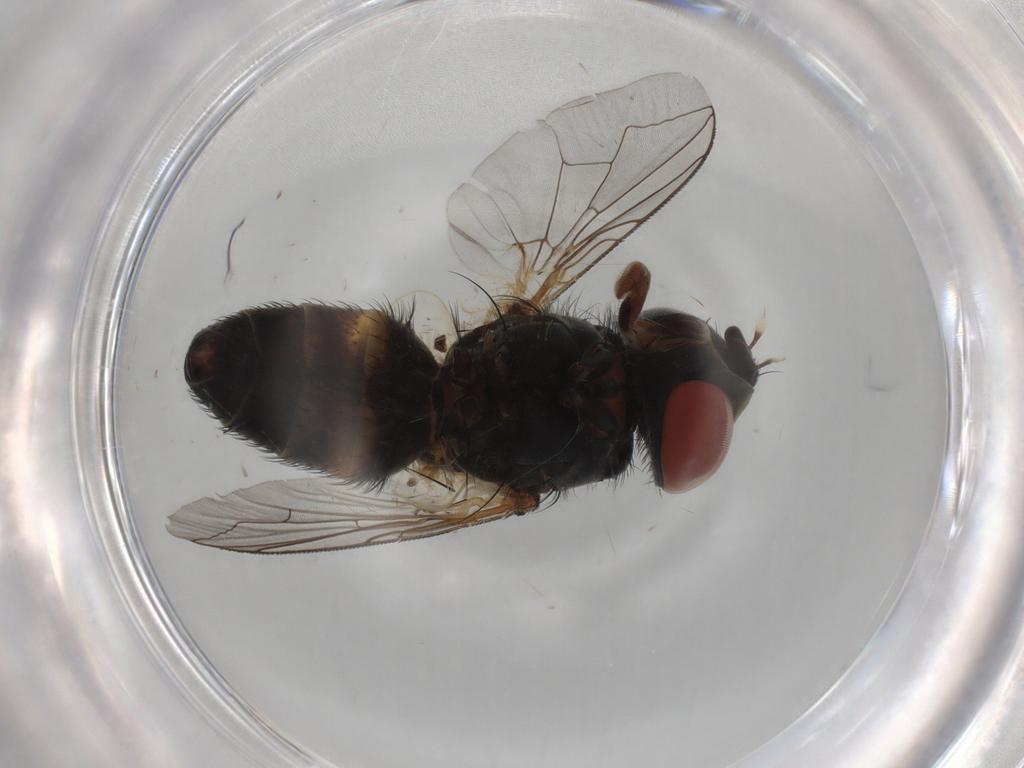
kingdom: Animalia
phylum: Arthropoda
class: Insecta
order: Diptera
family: Sarcophagidae
